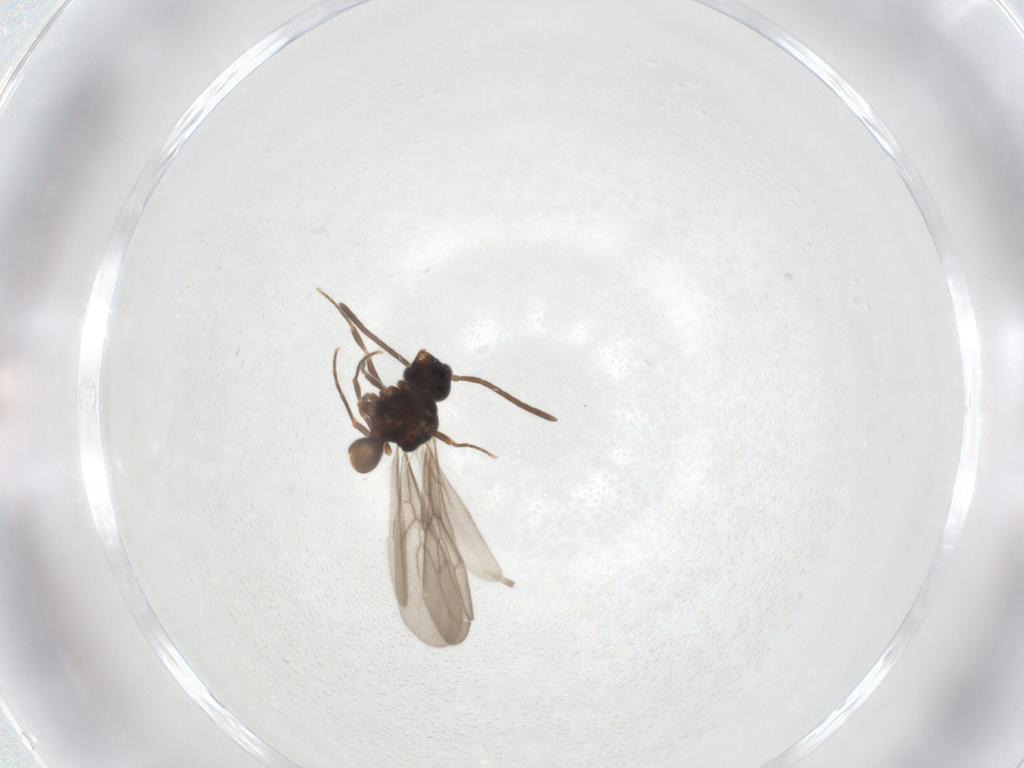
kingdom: Animalia
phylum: Arthropoda
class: Insecta
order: Hymenoptera
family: Formicidae
